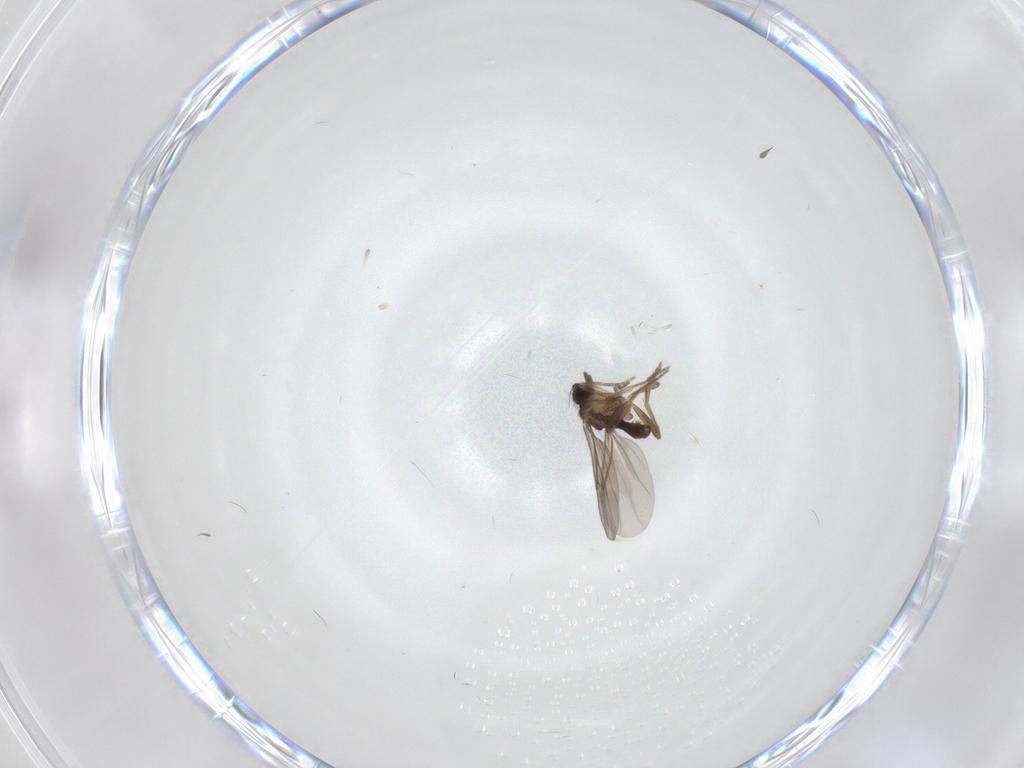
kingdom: Animalia
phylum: Arthropoda
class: Insecta
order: Diptera
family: Cecidomyiidae
